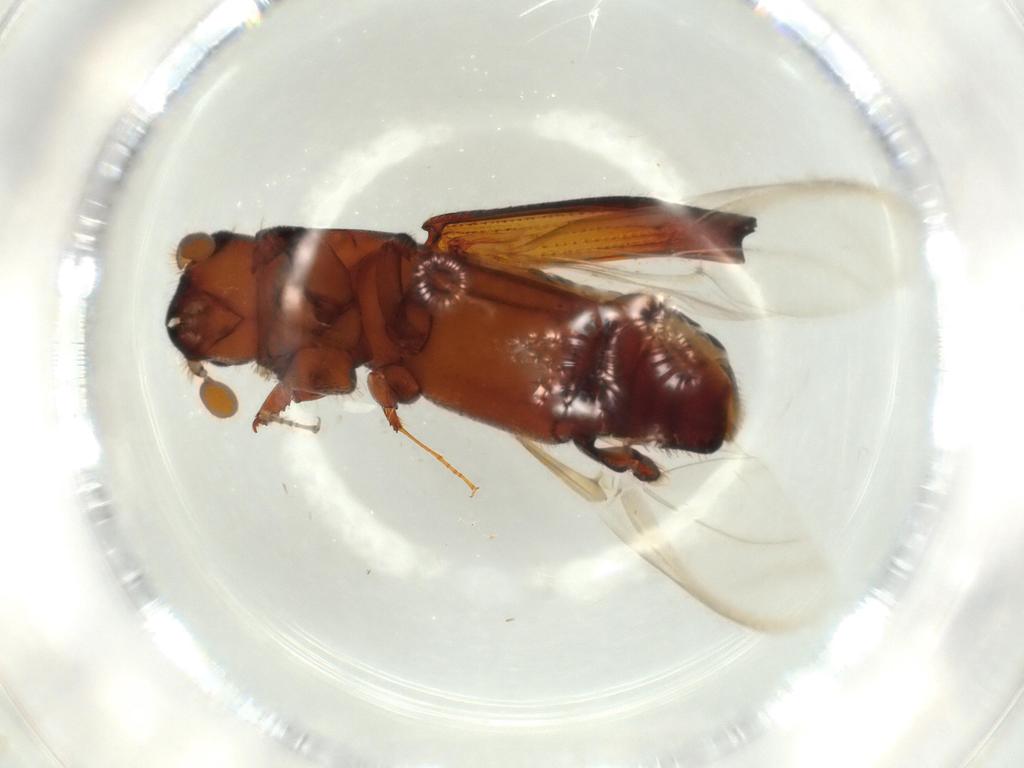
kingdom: Animalia
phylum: Arthropoda
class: Insecta
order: Coleoptera
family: Curculionidae
